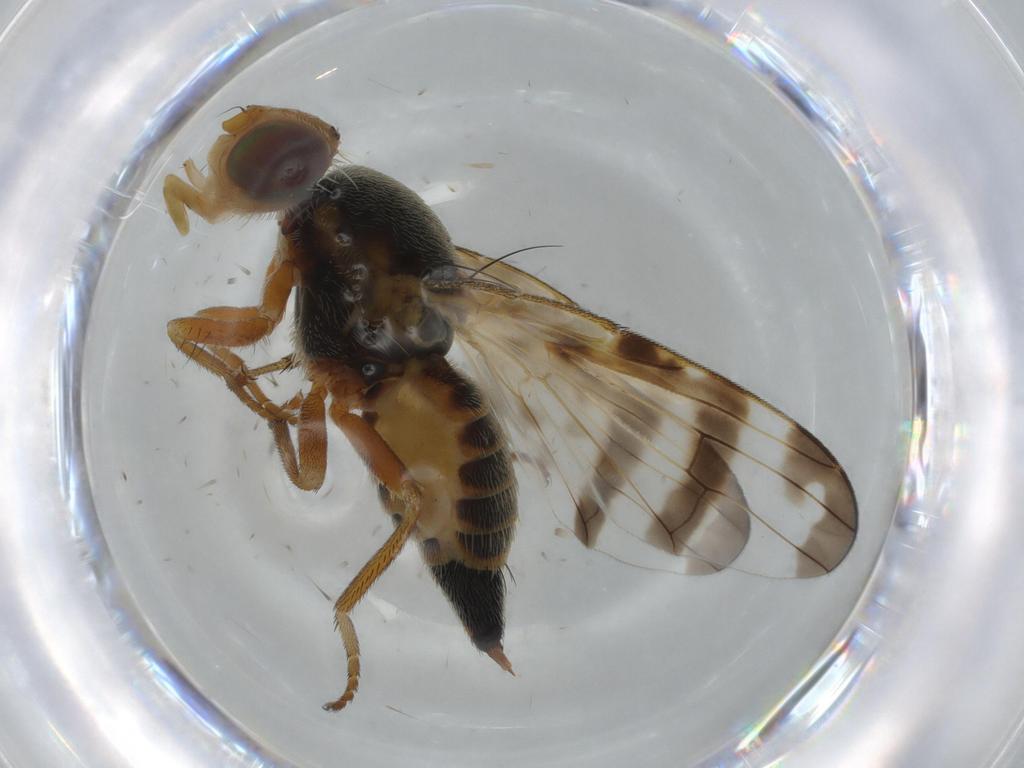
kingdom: Animalia
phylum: Arthropoda
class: Insecta
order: Diptera
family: Tephritidae
